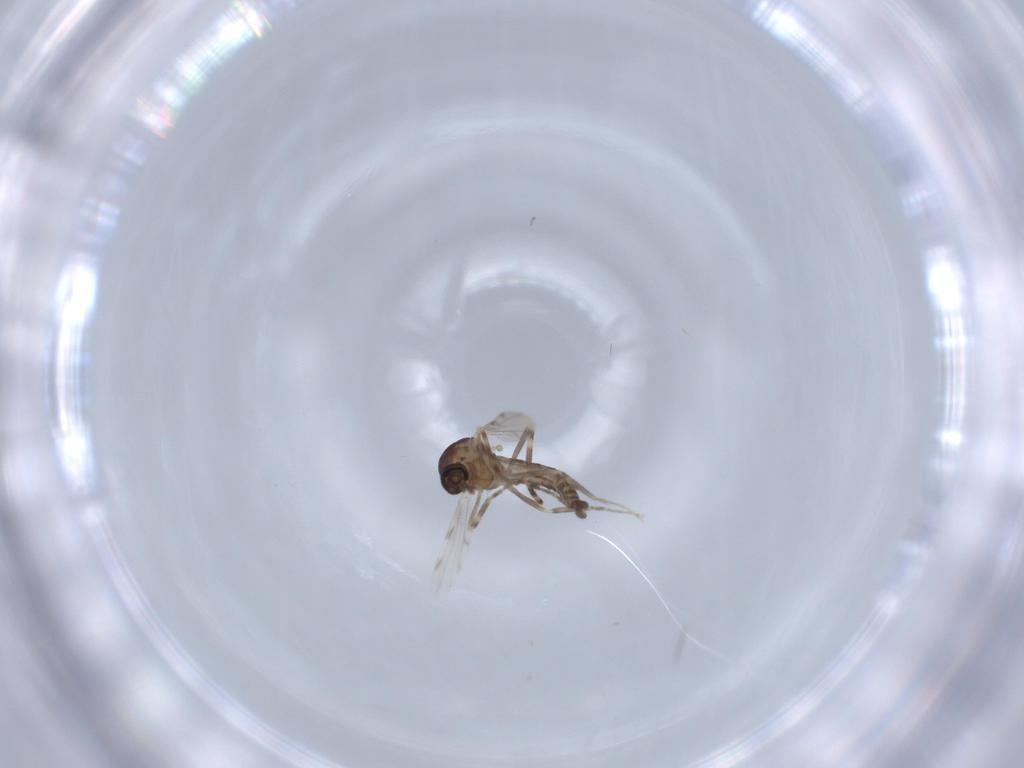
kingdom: Animalia
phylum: Arthropoda
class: Insecta
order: Diptera
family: Ceratopogonidae
